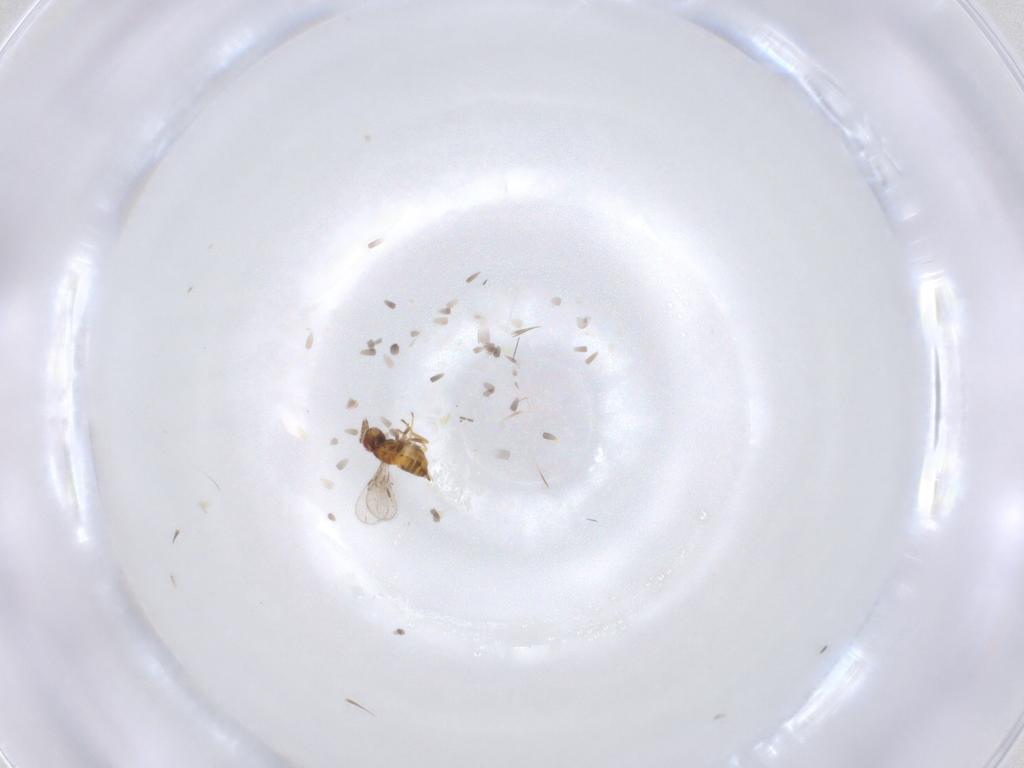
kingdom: Animalia
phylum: Arthropoda
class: Insecta
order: Hymenoptera
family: Trichogrammatidae
